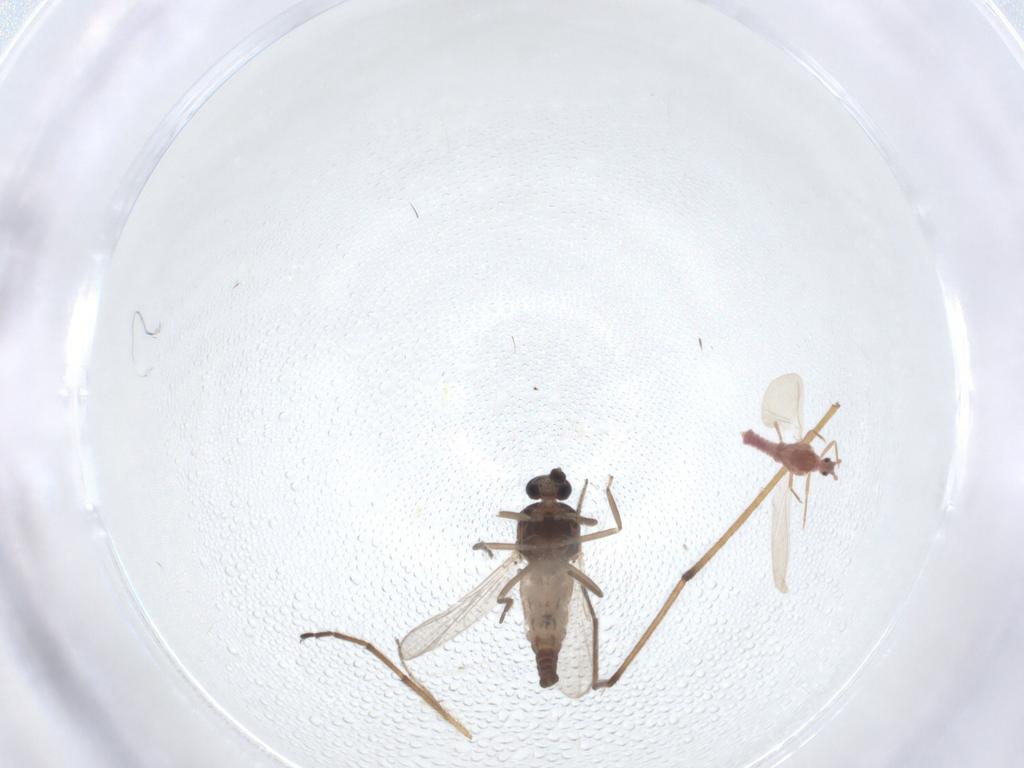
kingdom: Animalia
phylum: Arthropoda
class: Insecta
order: Diptera
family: Ceratopogonidae
